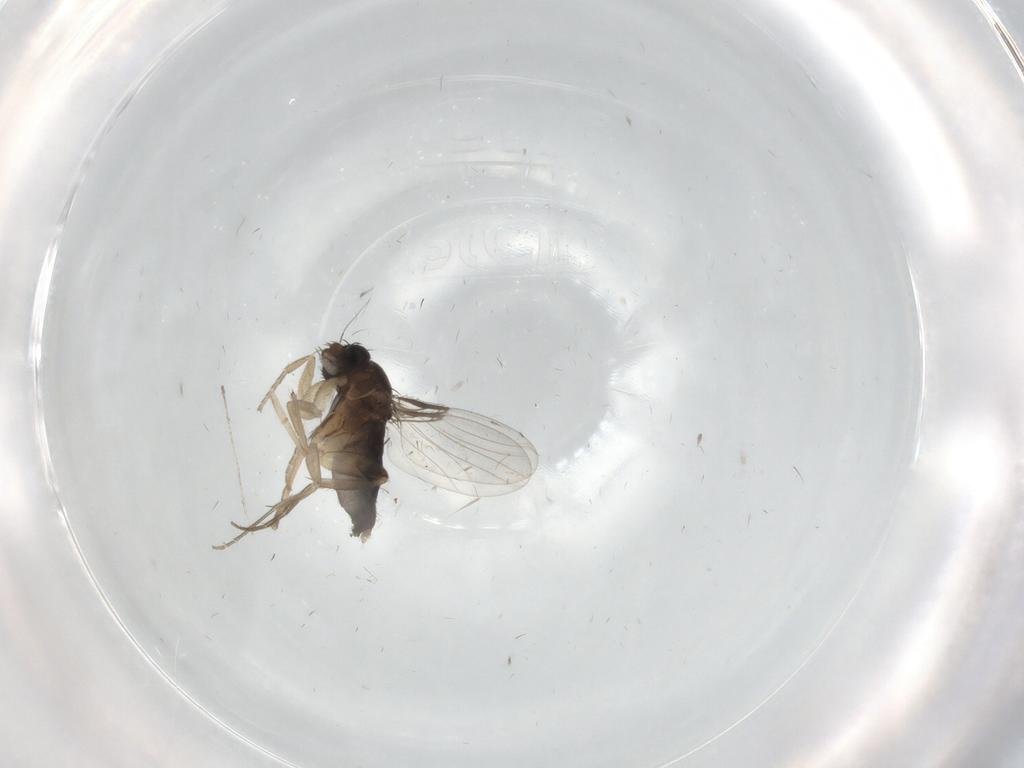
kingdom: Animalia
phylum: Arthropoda
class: Insecta
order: Diptera
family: Phoridae
